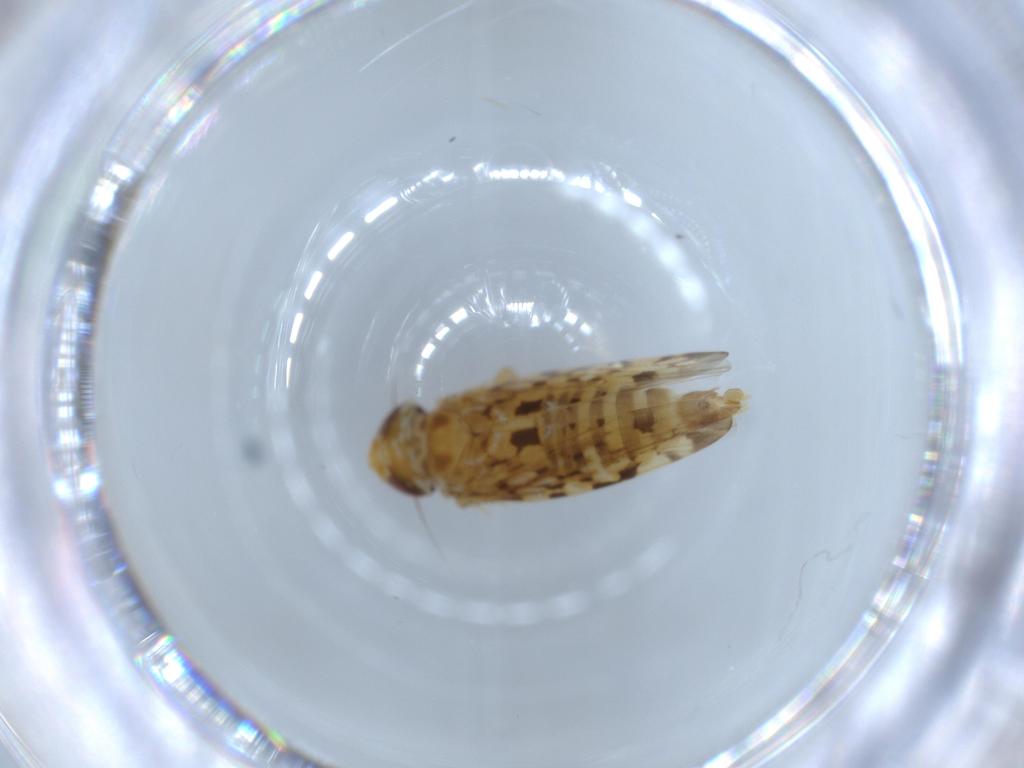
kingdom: Animalia
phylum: Arthropoda
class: Insecta
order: Hemiptera
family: Cicadellidae
